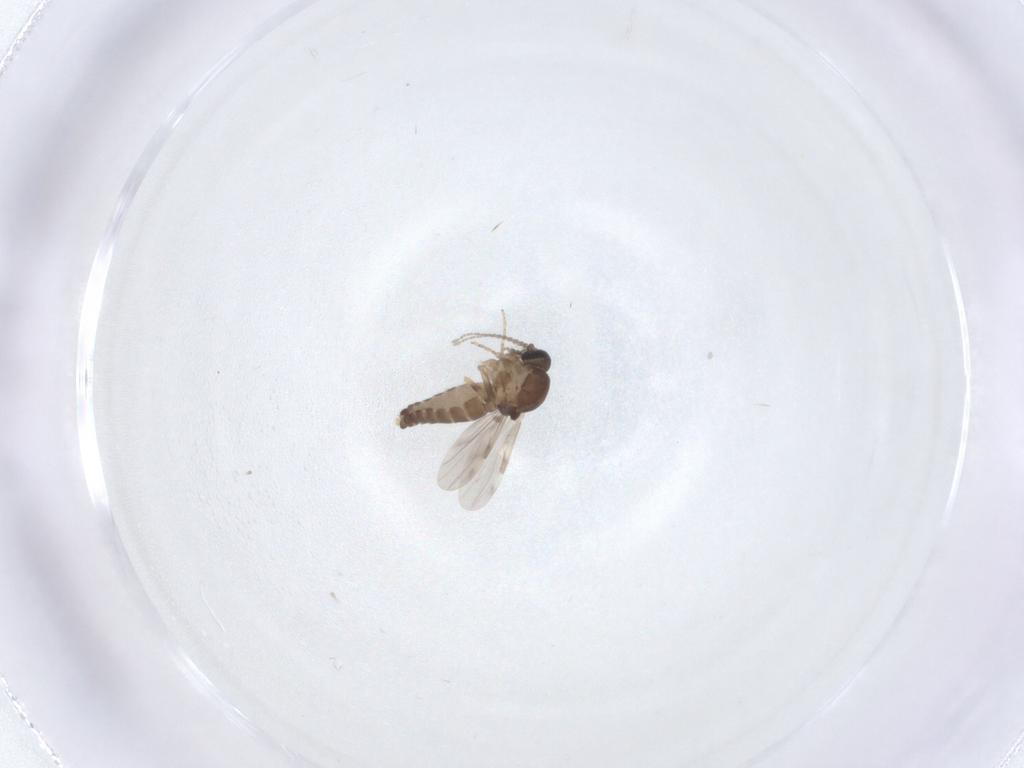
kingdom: Animalia
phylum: Arthropoda
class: Insecta
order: Diptera
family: Ceratopogonidae
